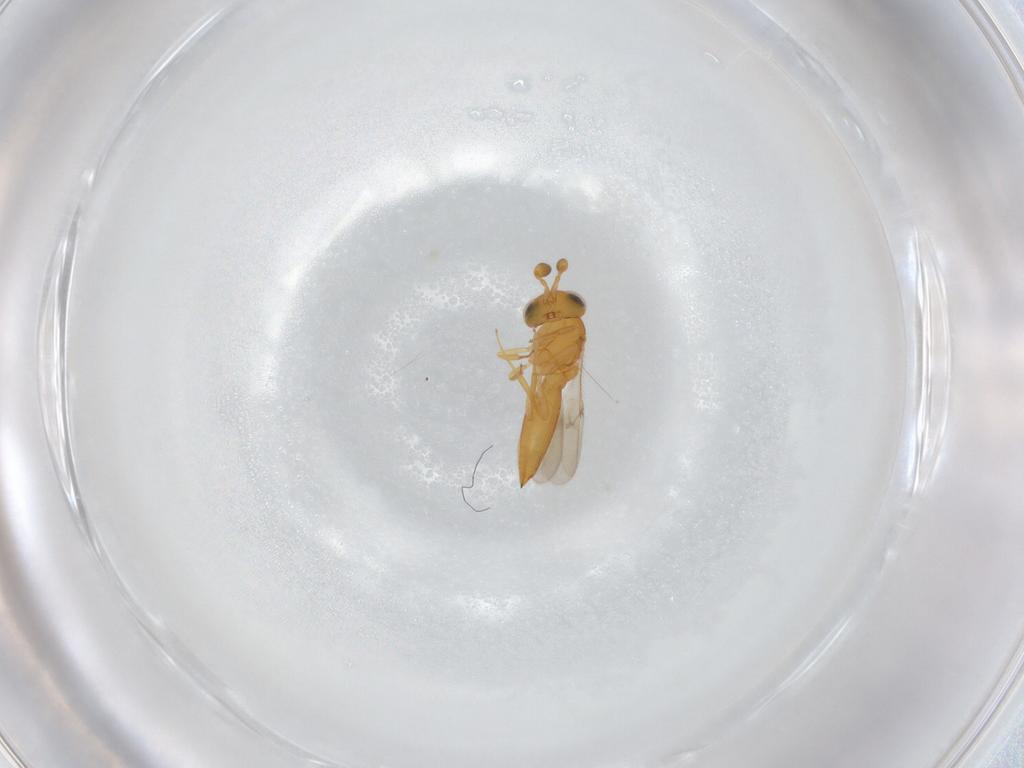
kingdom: Animalia
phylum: Arthropoda
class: Insecta
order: Hymenoptera
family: Scelionidae
